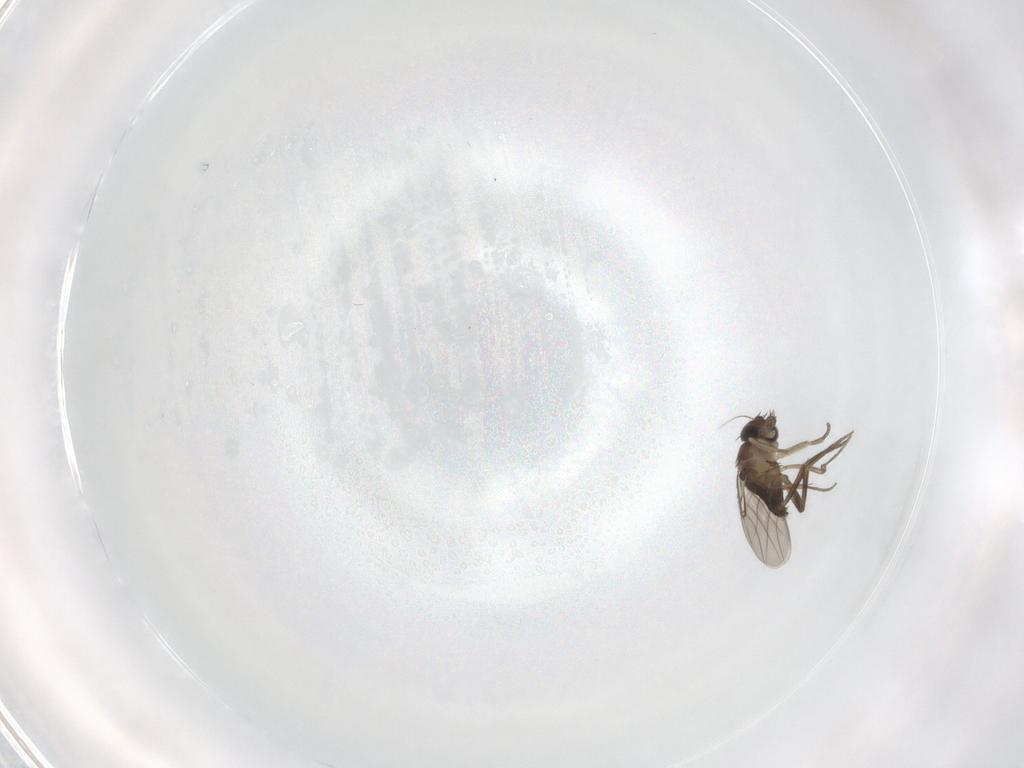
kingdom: Animalia
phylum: Arthropoda
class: Insecta
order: Diptera
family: Phoridae
